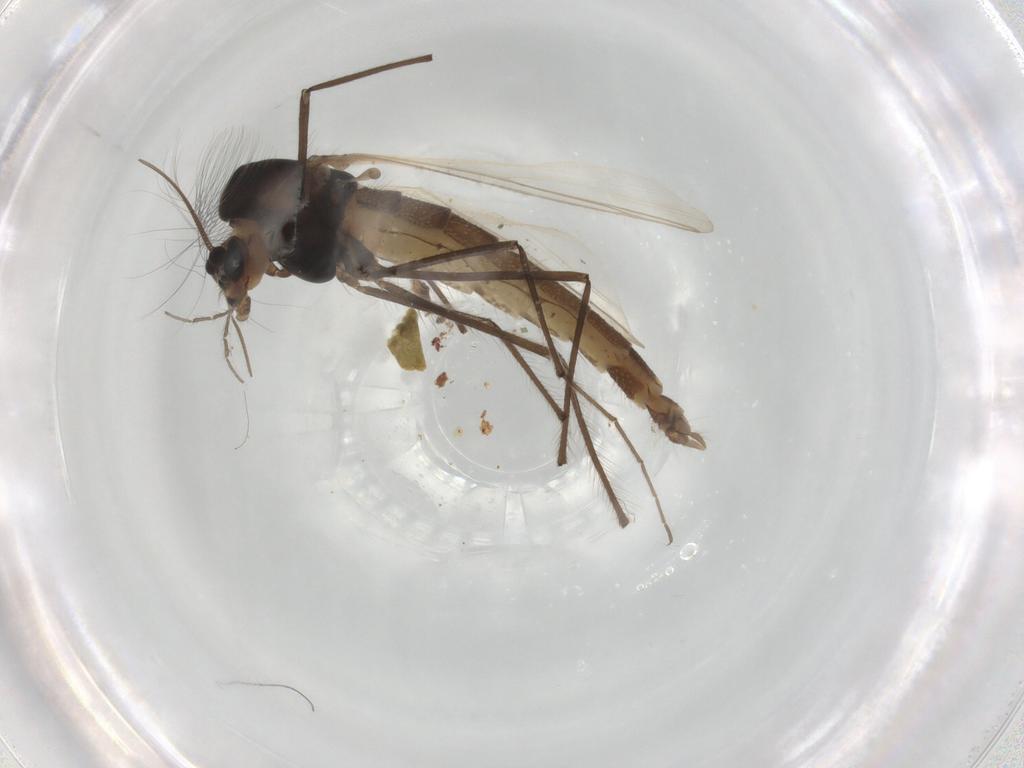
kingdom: Animalia
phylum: Arthropoda
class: Insecta
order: Diptera
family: Chironomidae
